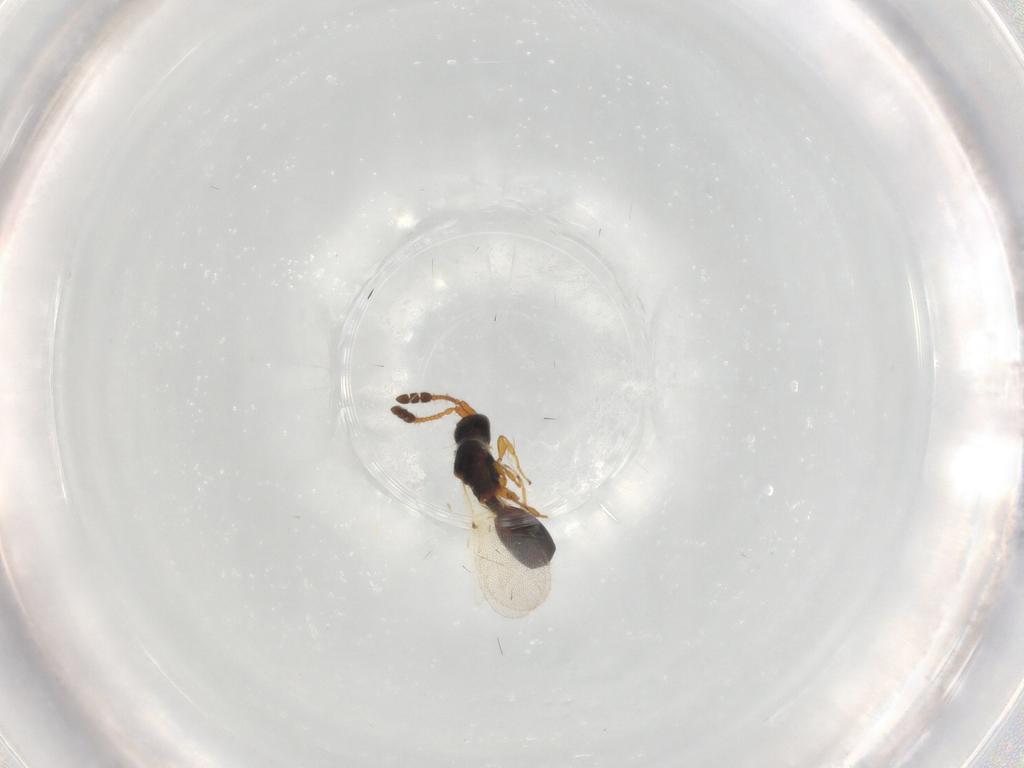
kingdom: Animalia
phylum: Arthropoda
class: Insecta
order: Hymenoptera
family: Diapriidae
